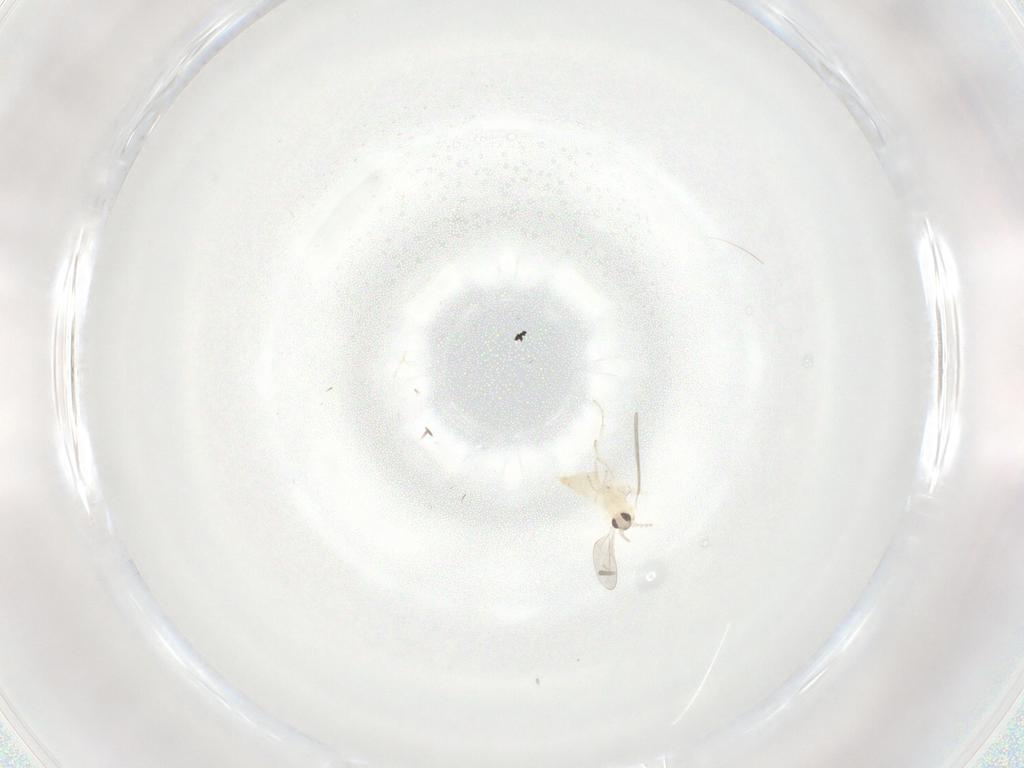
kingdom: Animalia
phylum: Arthropoda
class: Insecta
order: Diptera
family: Cecidomyiidae
